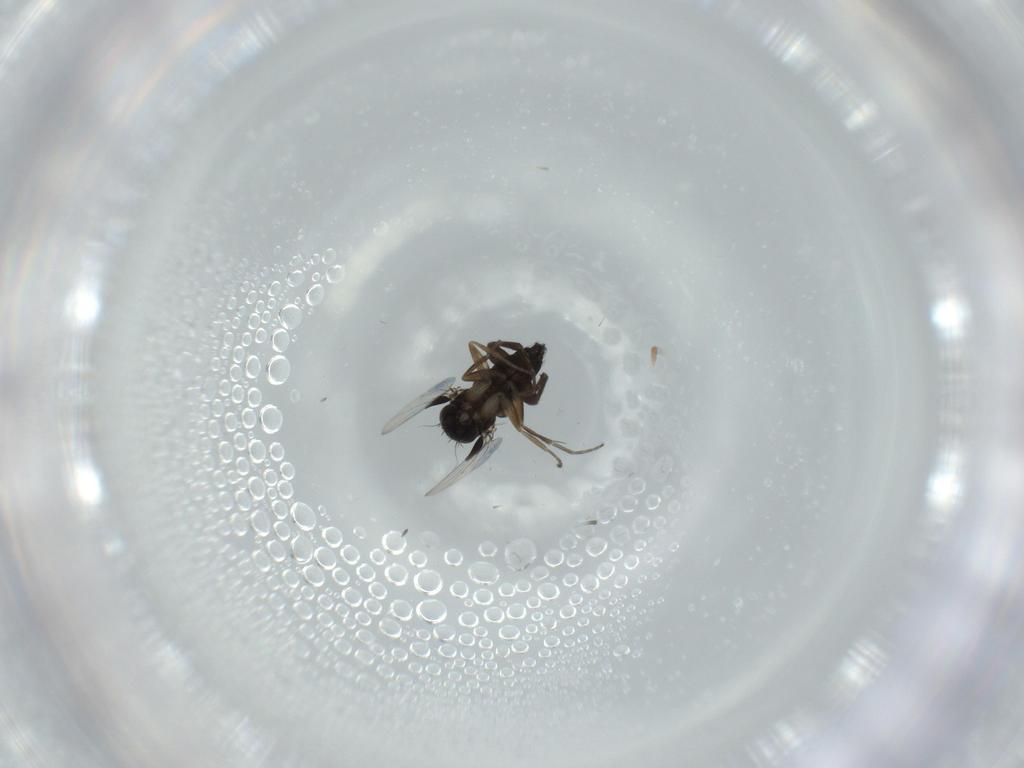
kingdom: Animalia
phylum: Arthropoda
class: Insecta
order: Diptera
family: Phoridae
